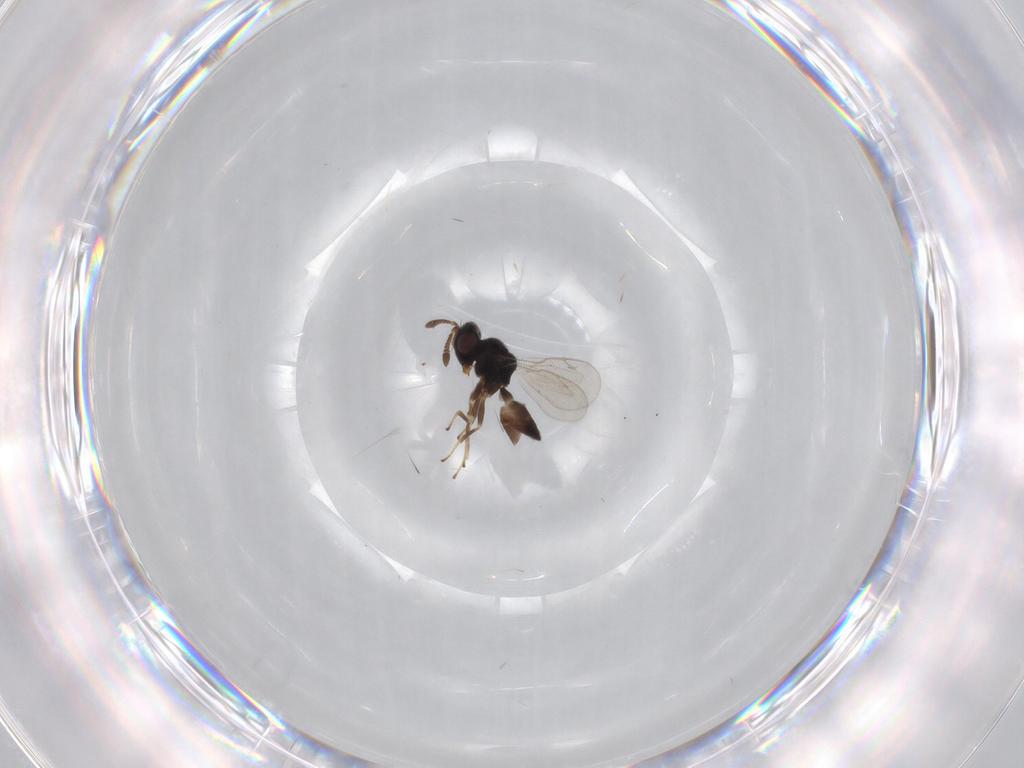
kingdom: Animalia
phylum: Arthropoda
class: Insecta
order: Hymenoptera
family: Pteromalidae
